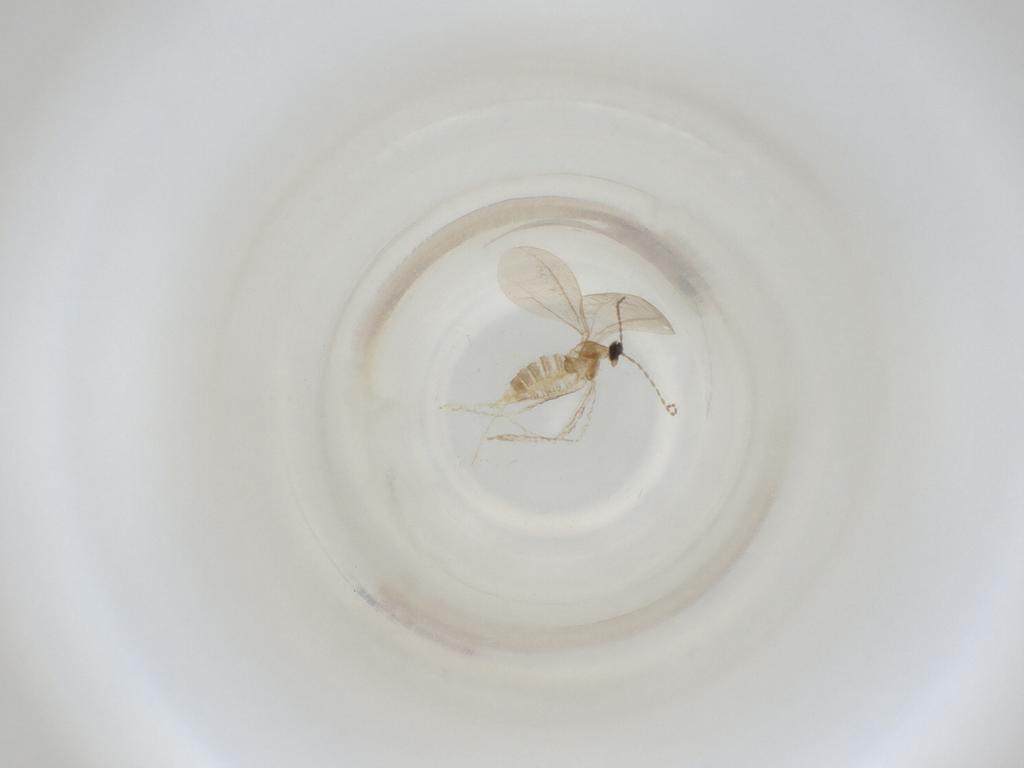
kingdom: Animalia
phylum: Arthropoda
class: Insecta
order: Diptera
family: Cecidomyiidae
